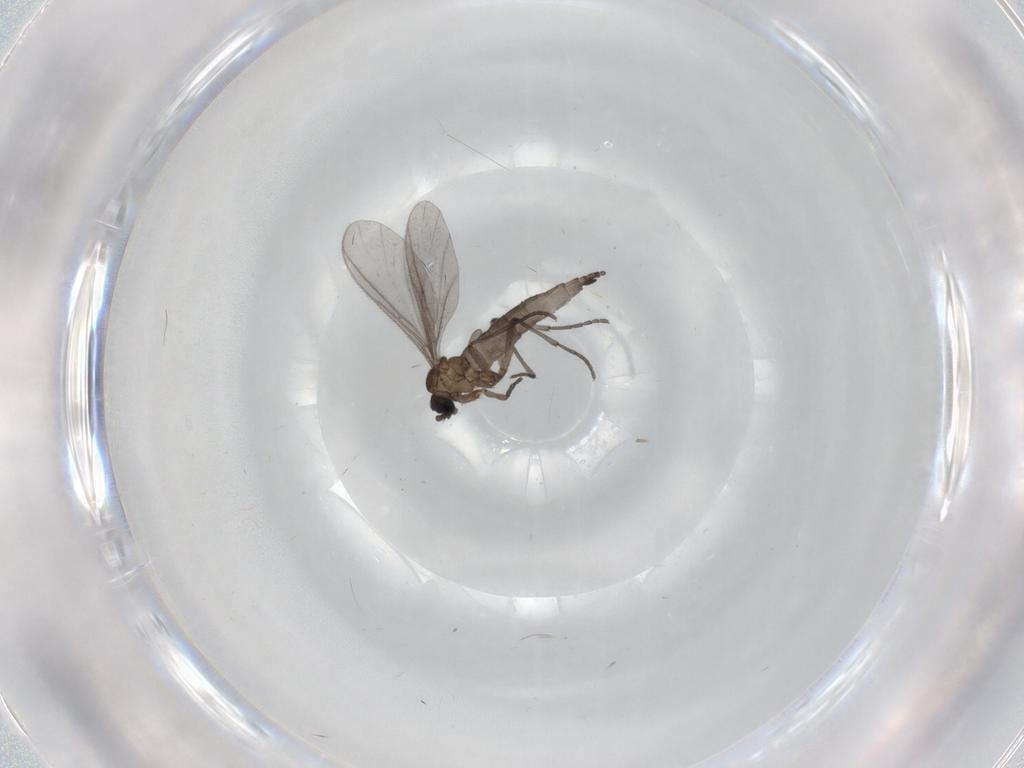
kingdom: Animalia
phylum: Arthropoda
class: Insecta
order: Diptera
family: Sciaridae
